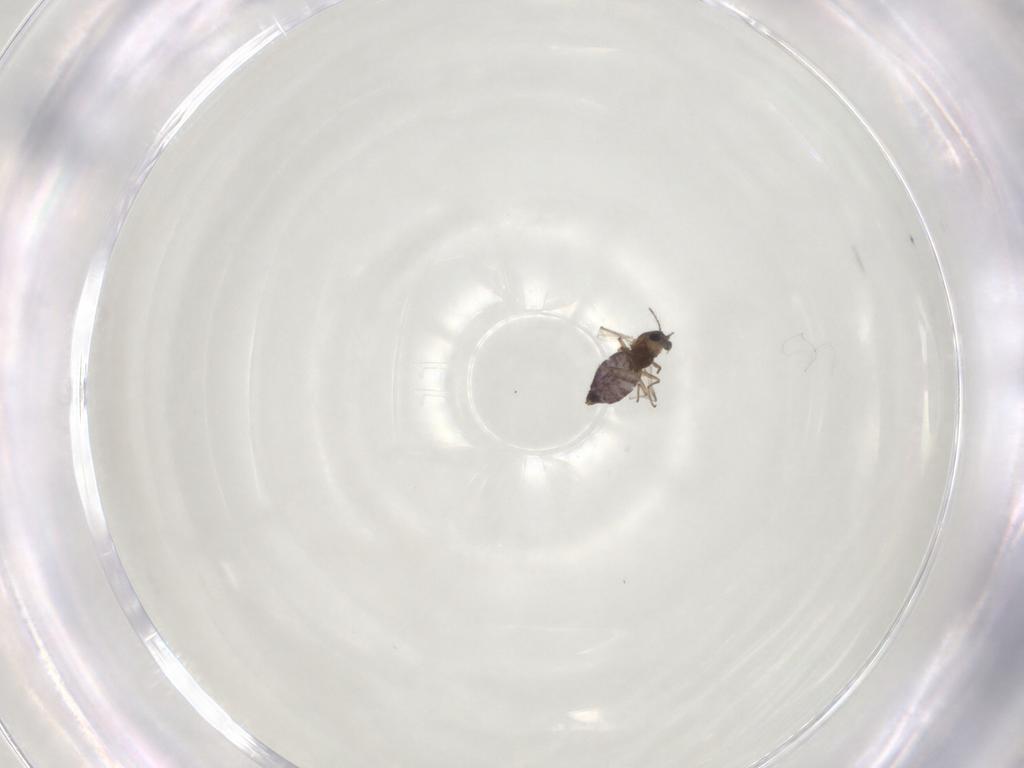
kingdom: Animalia
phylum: Arthropoda
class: Insecta
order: Diptera
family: Chironomidae
